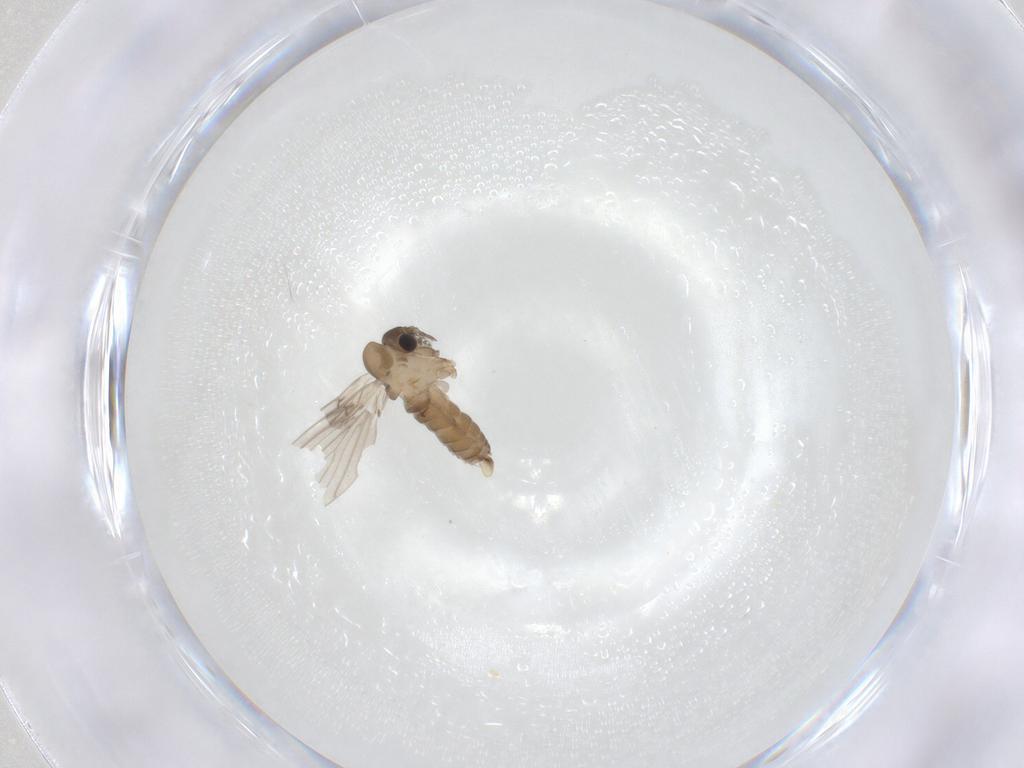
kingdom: Animalia
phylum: Arthropoda
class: Insecta
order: Diptera
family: Psychodidae
